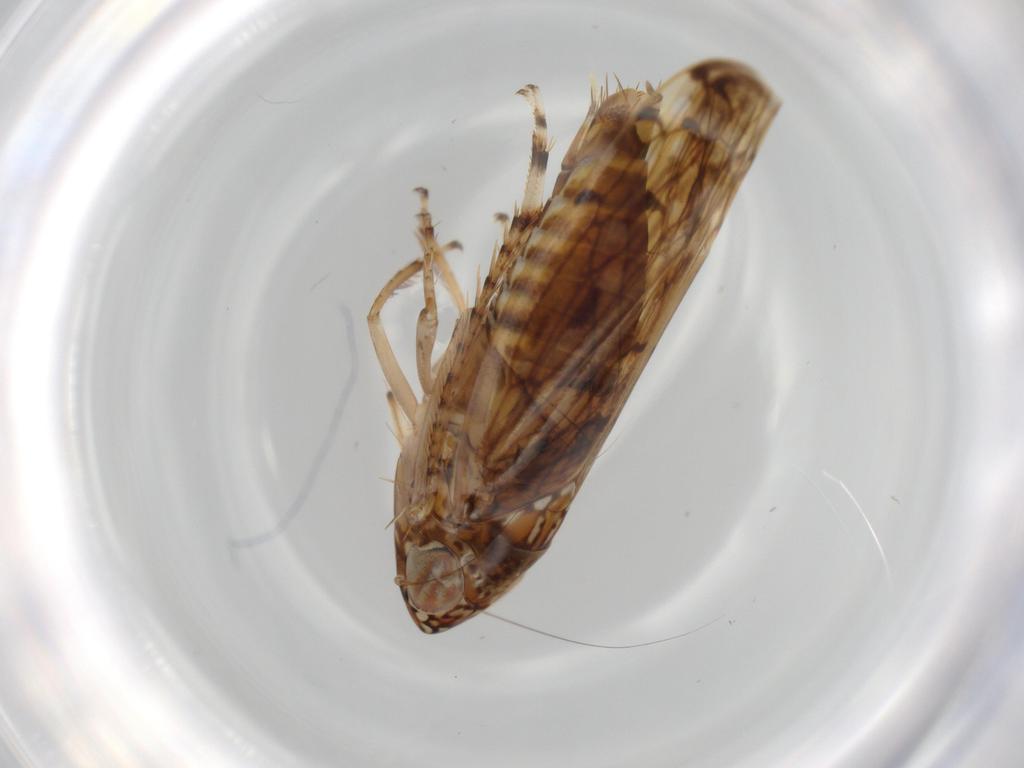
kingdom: Animalia
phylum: Arthropoda
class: Insecta
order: Hemiptera
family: Cicadellidae
